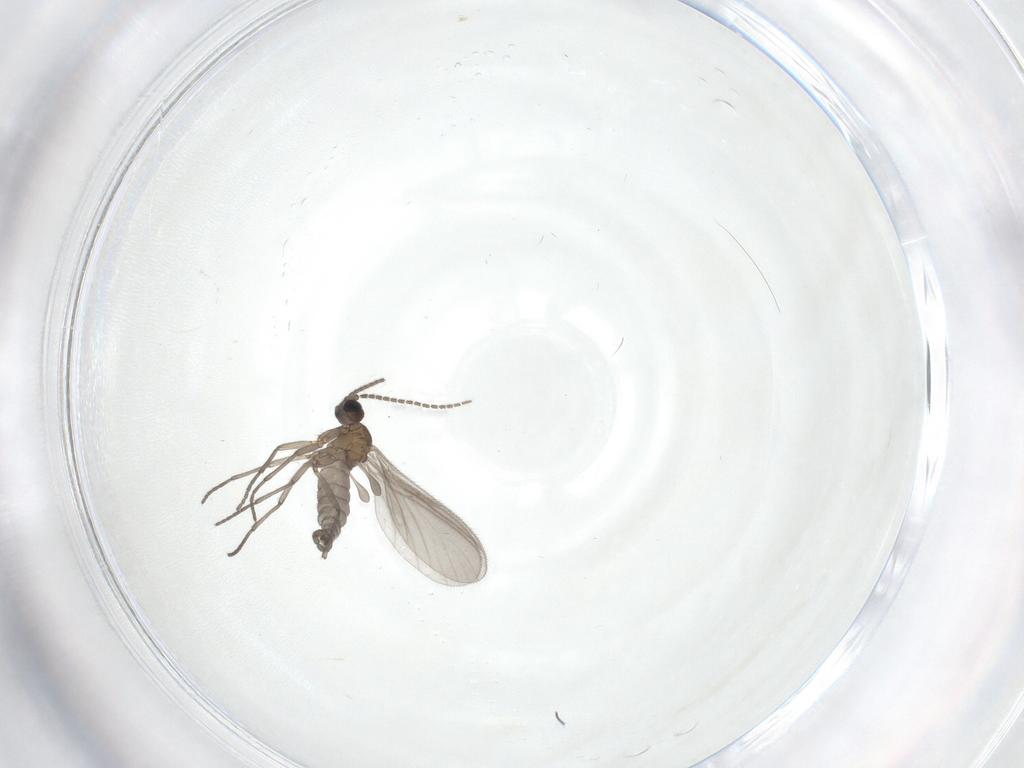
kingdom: Animalia
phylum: Arthropoda
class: Insecta
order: Diptera
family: Sciaridae
